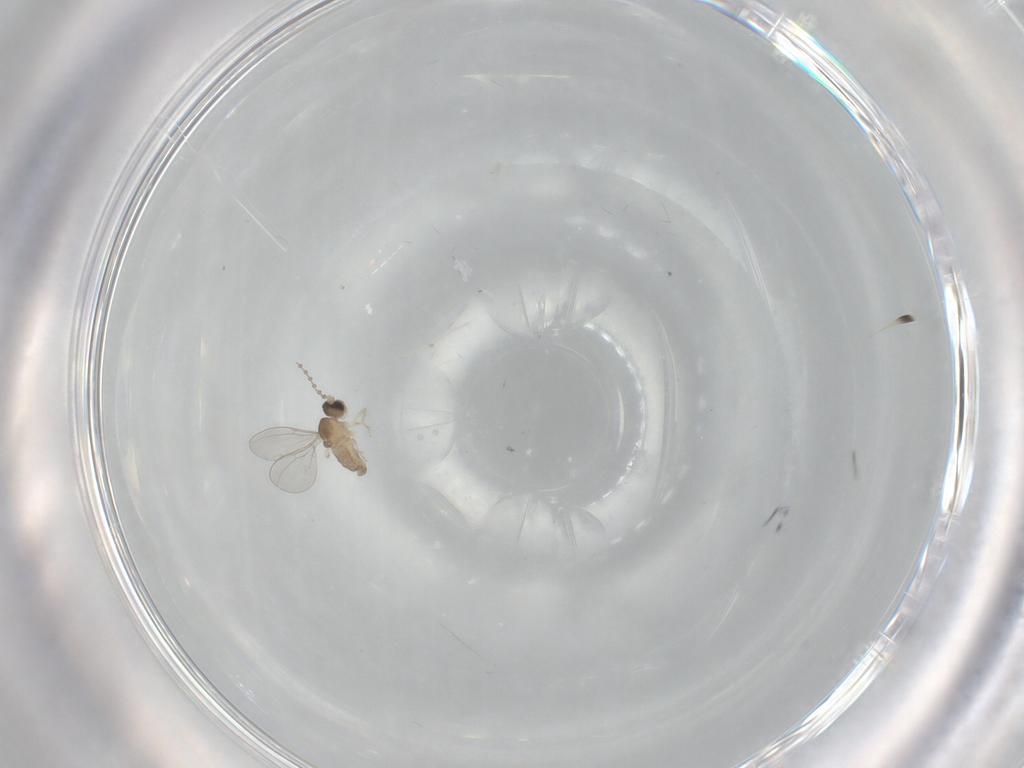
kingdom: Animalia
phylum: Arthropoda
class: Insecta
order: Diptera
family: Cecidomyiidae
